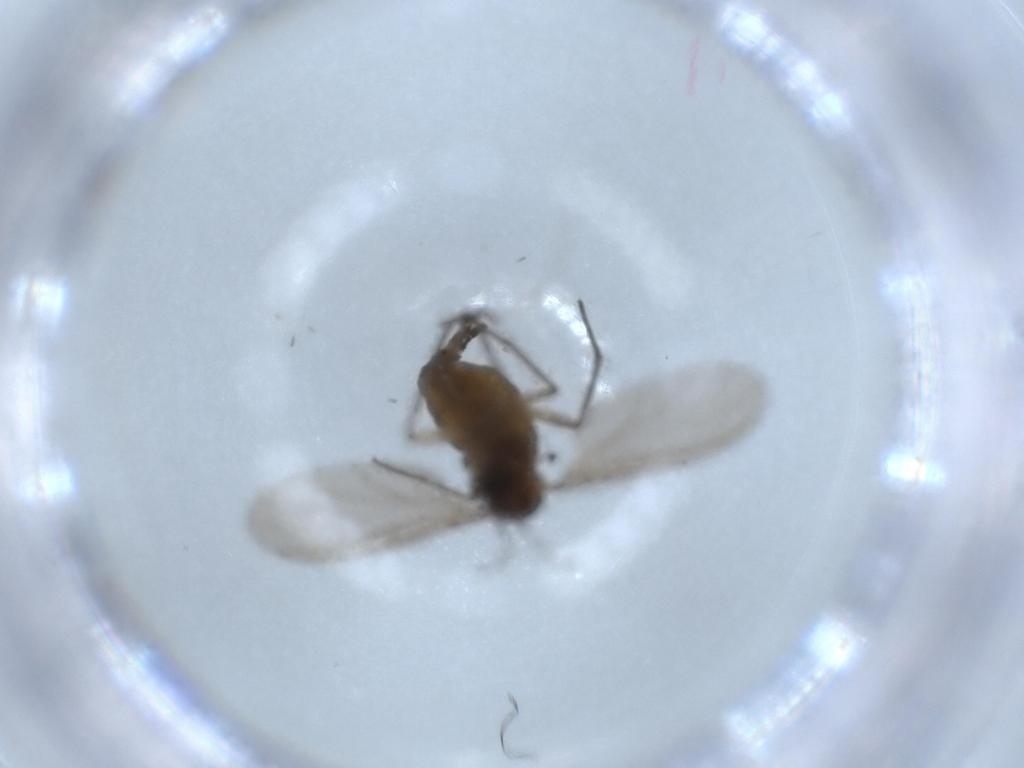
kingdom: Animalia
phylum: Arthropoda
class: Insecta
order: Diptera
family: Sciaridae
